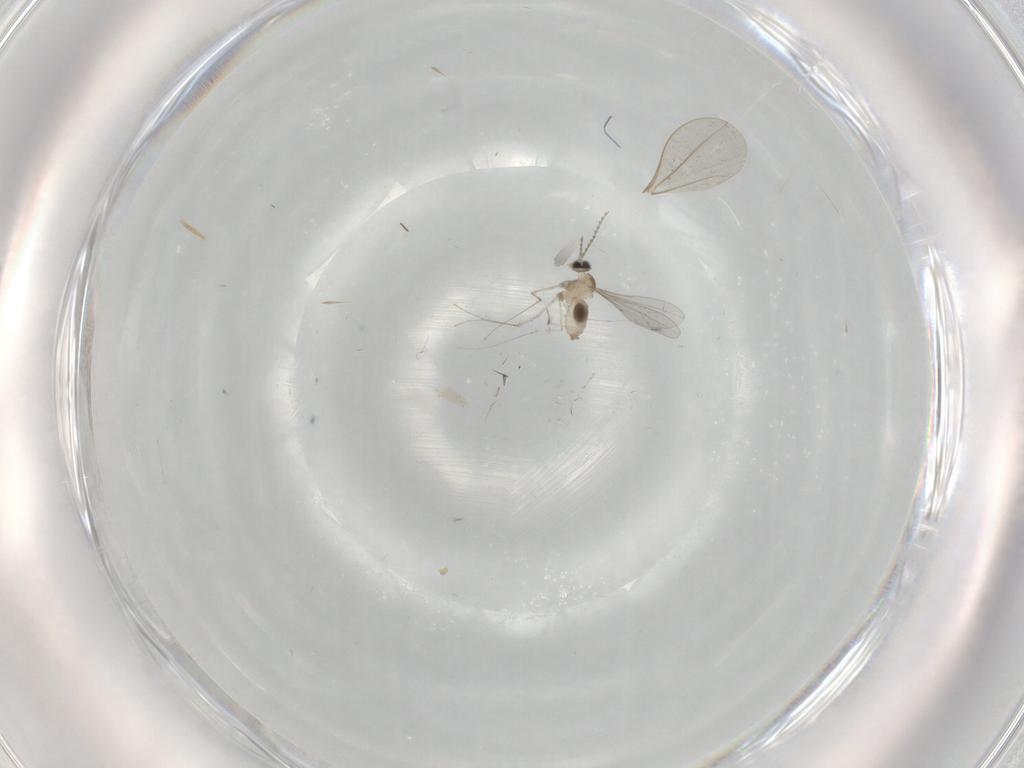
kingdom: Animalia
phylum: Arthropoda
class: Insecta
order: Diptera
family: Cecidomyiidae
